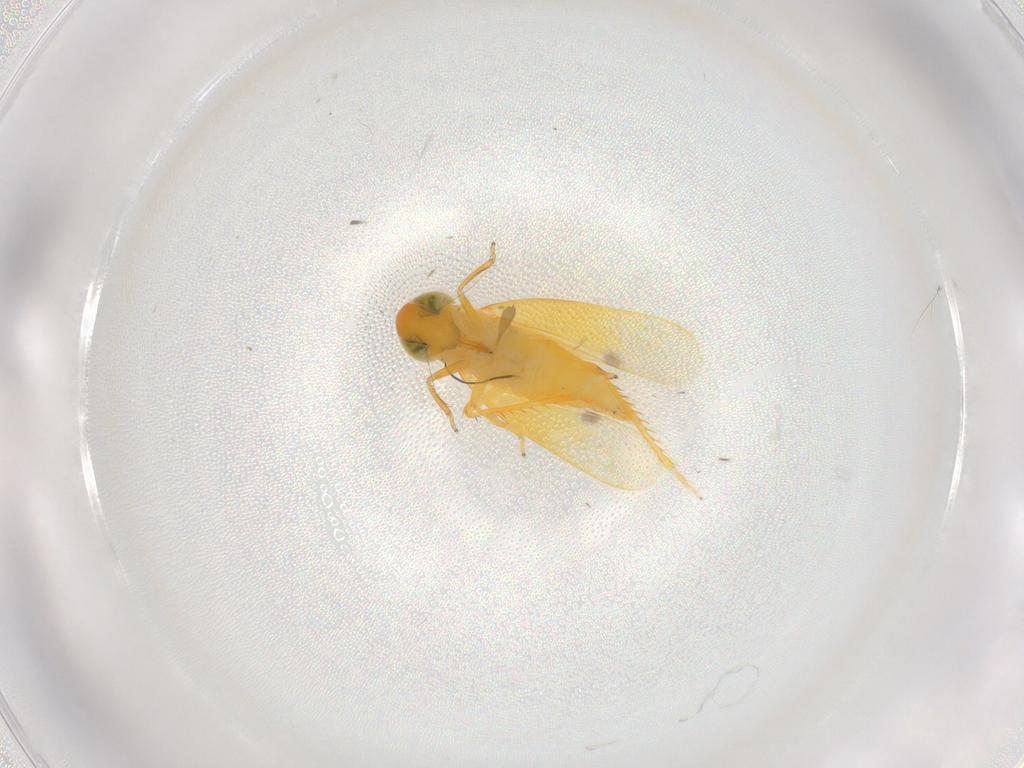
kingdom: Animalia
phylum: Arthropoda
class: Insecta
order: Hemiptera
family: Cicadellidae
